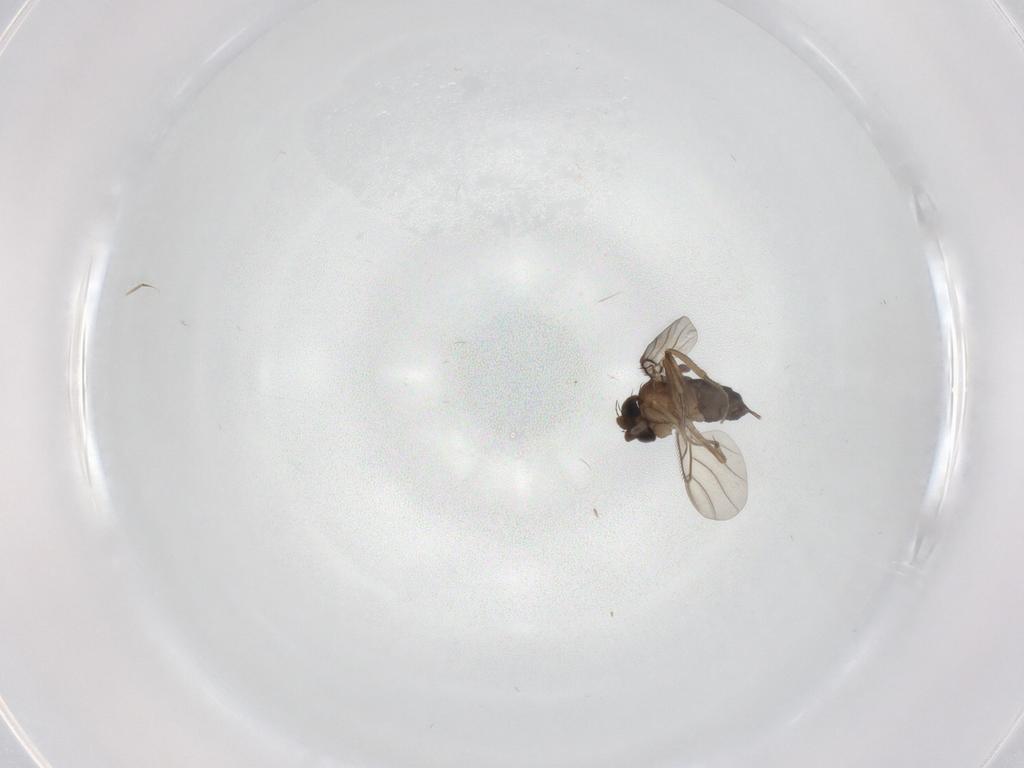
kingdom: Animalia
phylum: Arthropoda
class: Insecta
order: Diptera
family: Phoridae
